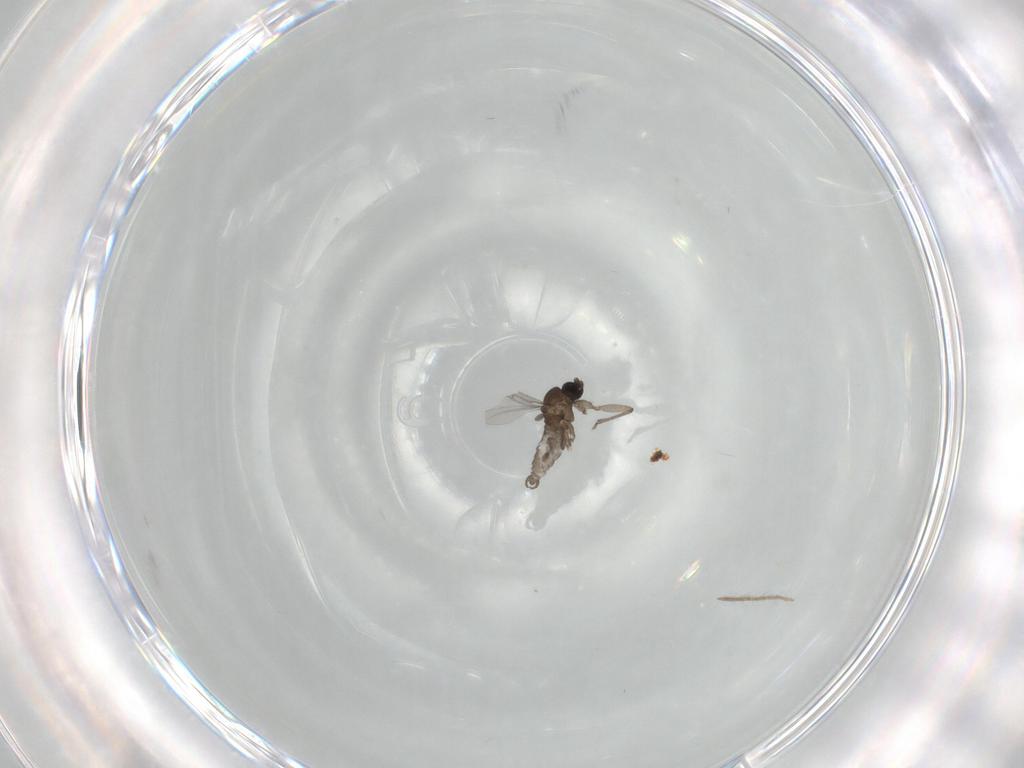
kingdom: Animalia
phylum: Arthropoda
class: Insecta
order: Diptera
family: Sciaridae
